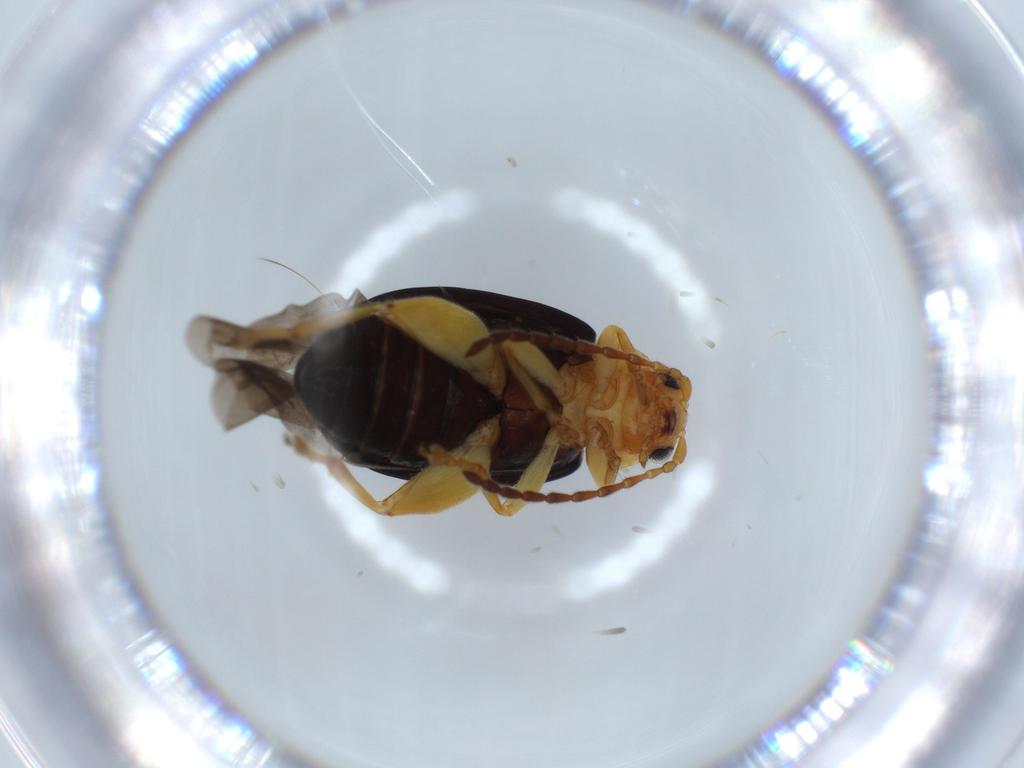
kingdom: Animalia
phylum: Arthropoda
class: Insecta
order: Coleoptera
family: Chrysomelidae
